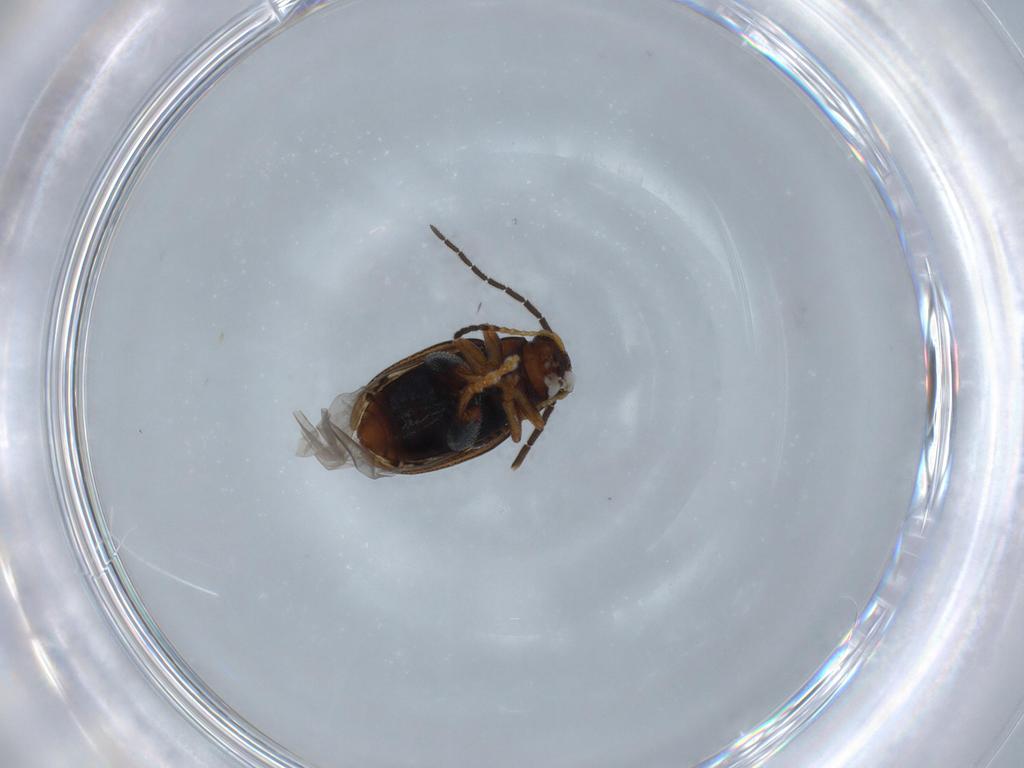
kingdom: Animalia
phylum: Arthropoda
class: Insecta
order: Coleoptera
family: Chrysomelidae
